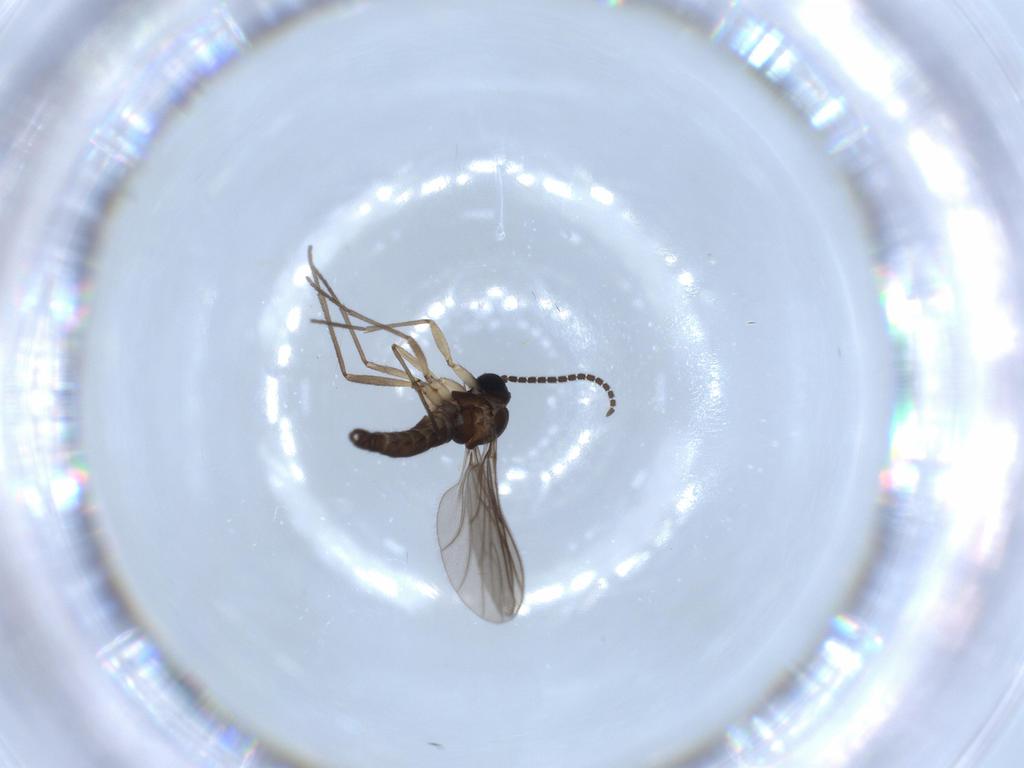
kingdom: Animalia
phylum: Arthropoda
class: Insecta
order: Diptera
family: Sciaridae
